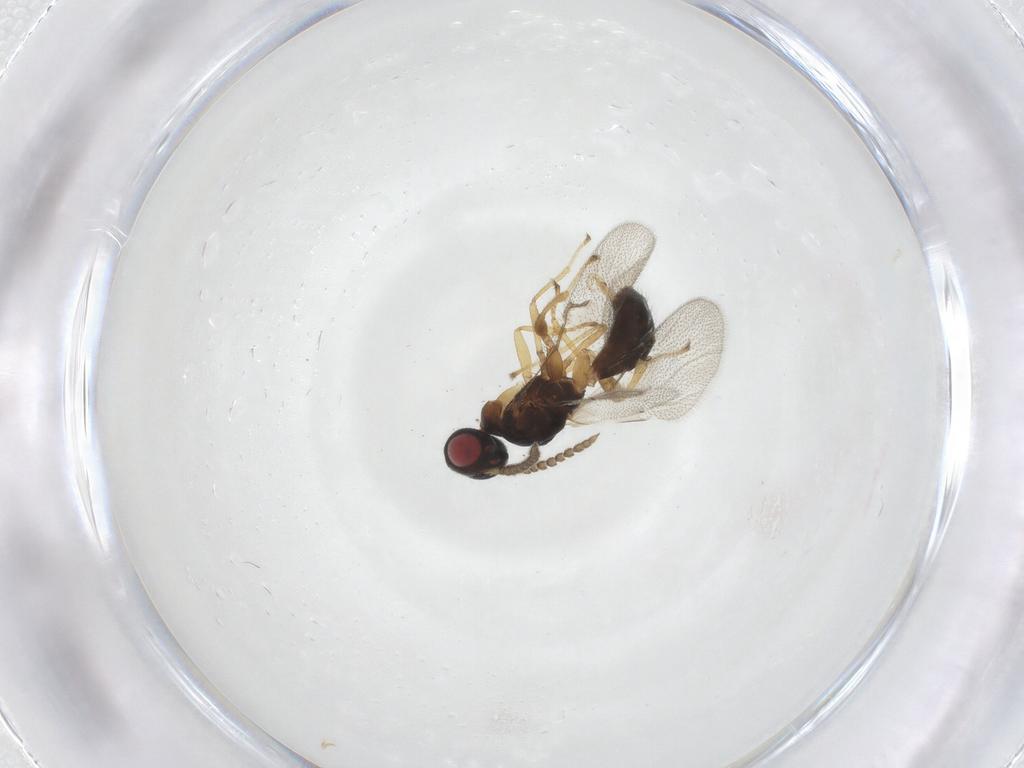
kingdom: Animalia
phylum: Arthropoda
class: Insecta
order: Hymenoptera
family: Agaonidae
